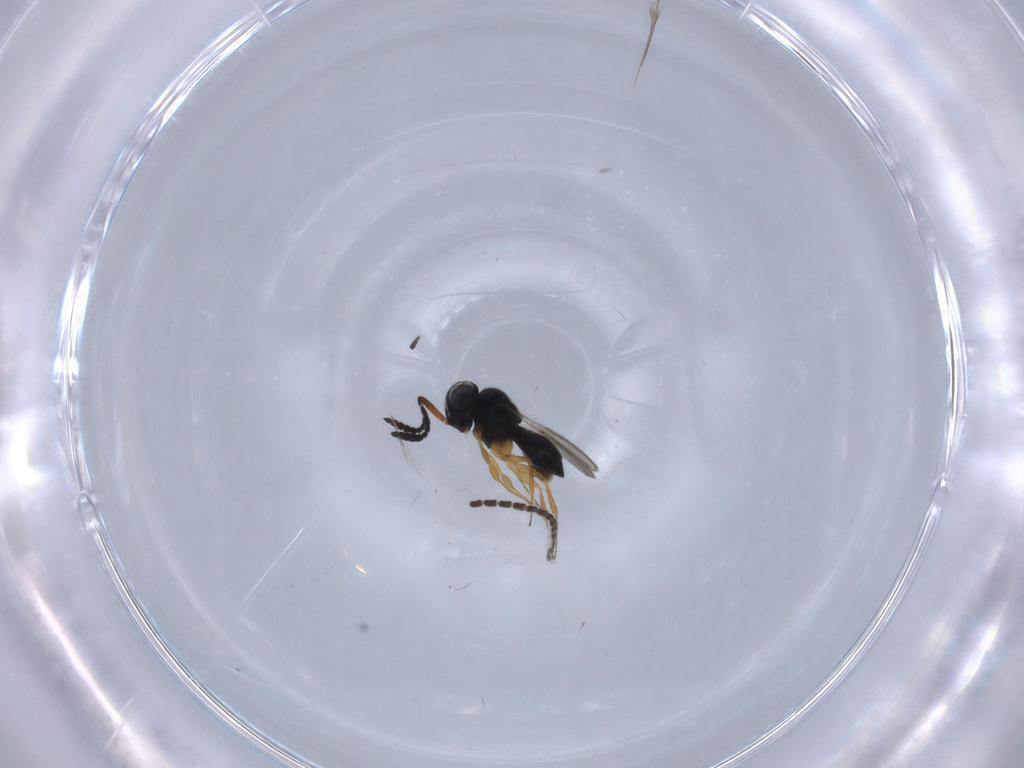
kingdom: Animalia
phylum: Arthropoda
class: Insecta
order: Hymenoptera
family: Scelionidae
